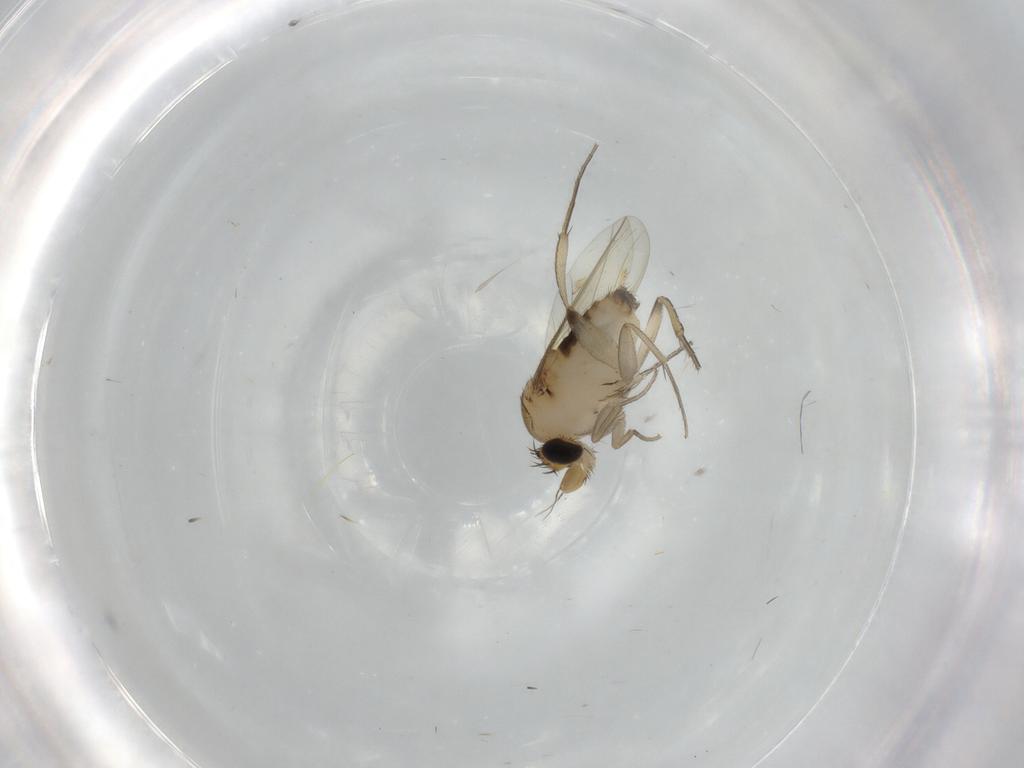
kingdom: Animalia
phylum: Arthropoda
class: Insecta
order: Diptera
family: Phoridae
